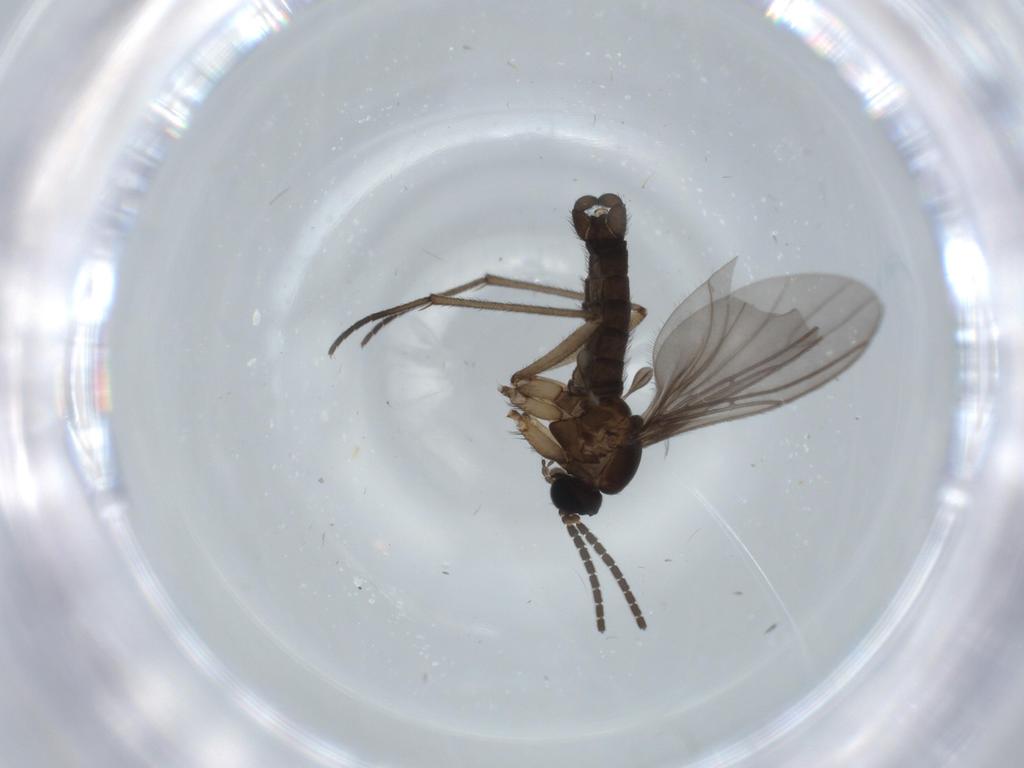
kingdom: Animalia
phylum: Arthropoda
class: Insecta
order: Diptera
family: Sciaridae
